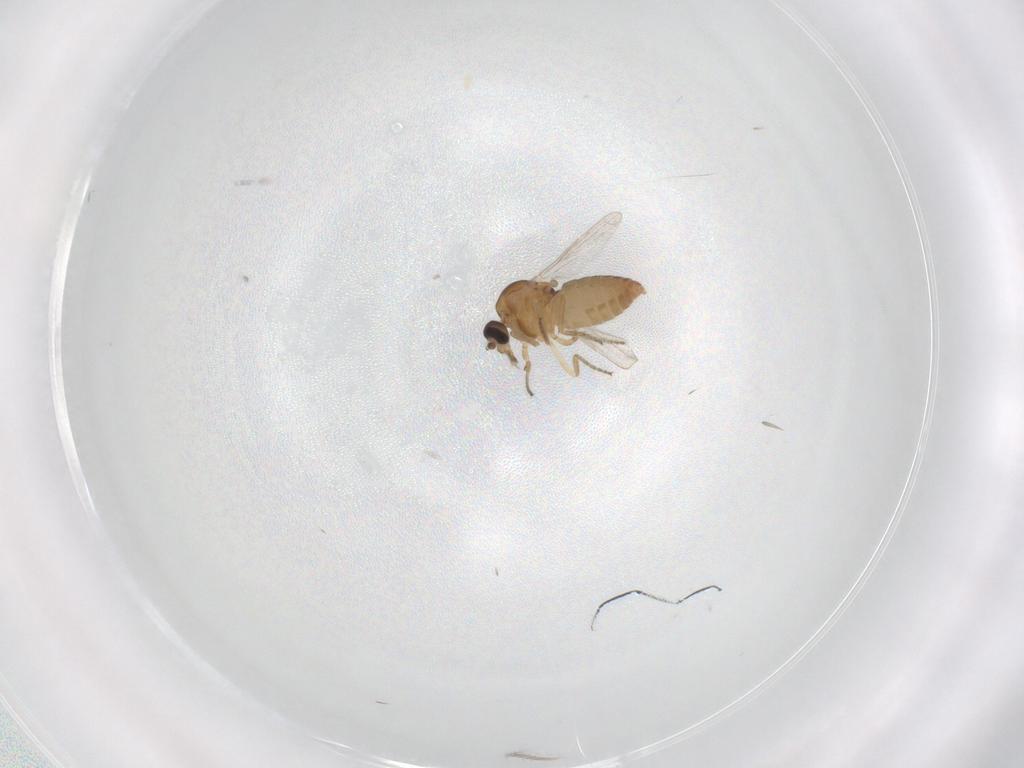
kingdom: Animalia
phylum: Arthropoda
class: Insecta
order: Diptera
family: Ceratopogonidae
